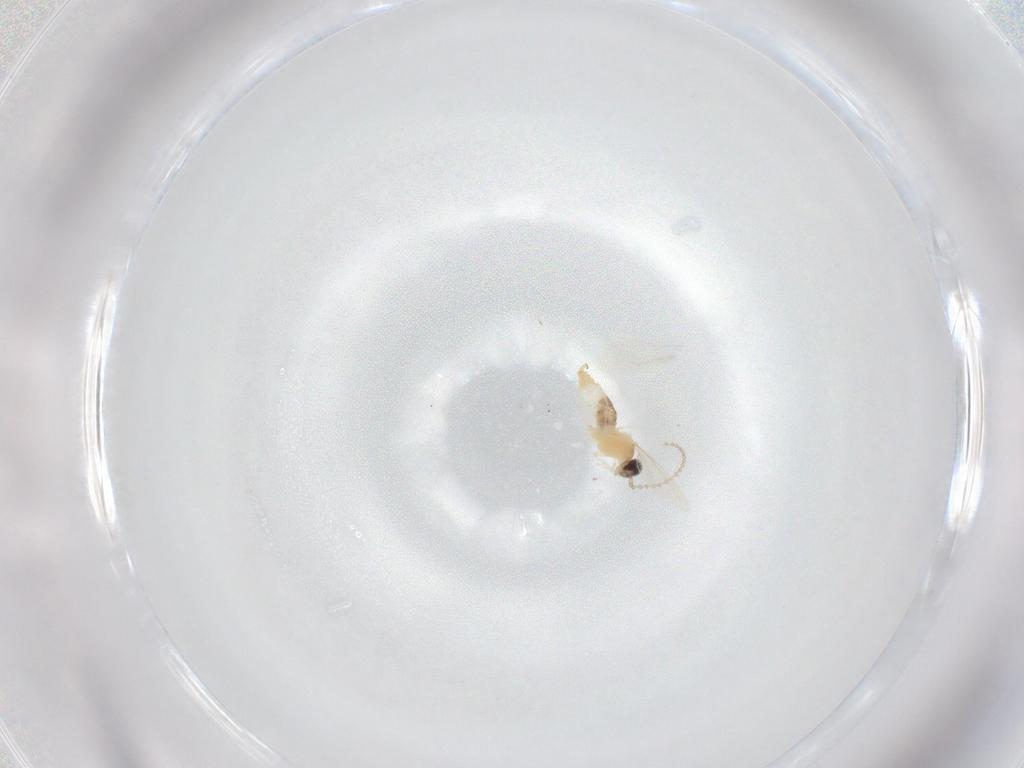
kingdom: Animalia
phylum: Arthropoda
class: Insecta
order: Diptera
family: Cecidomyiidae
